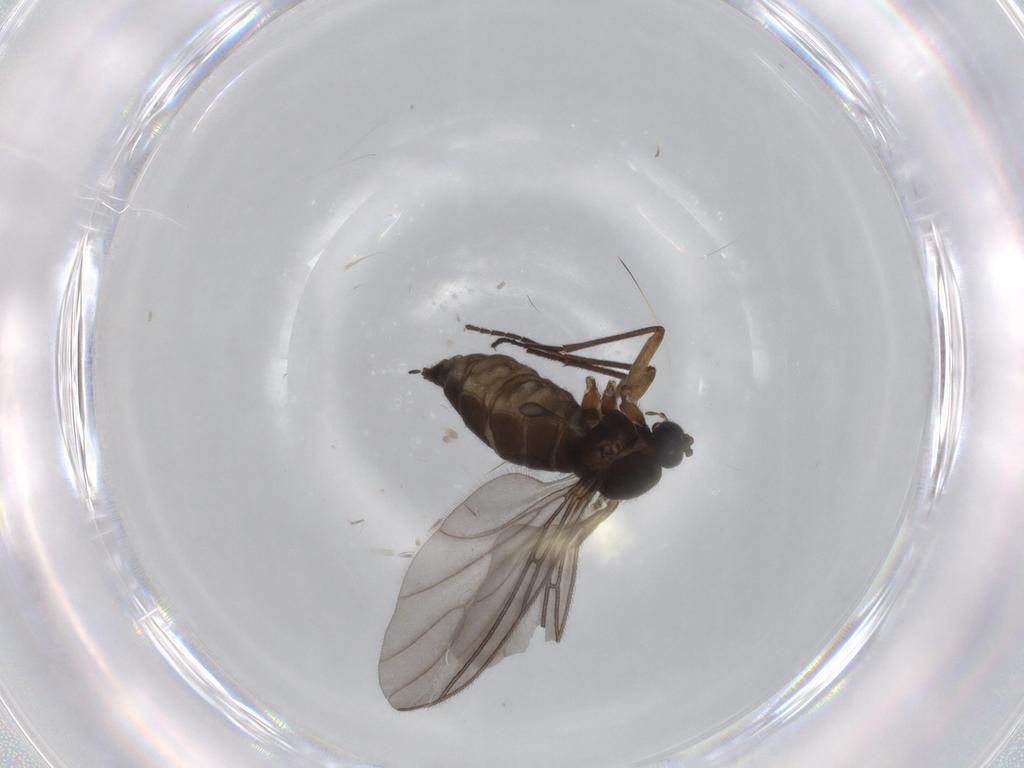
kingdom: Animalia
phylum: Arthropoda
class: Insecta
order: Diptera
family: Sciaridae
